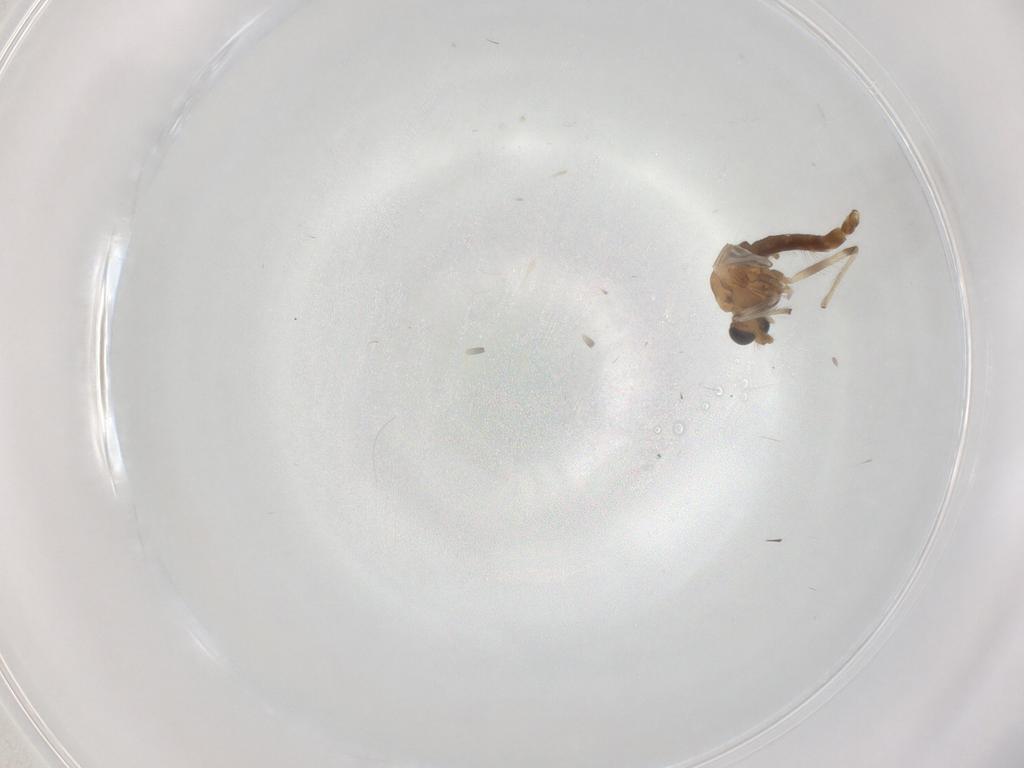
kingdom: Animalia
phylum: Arthropoda
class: Insecta
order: Diptera
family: Chironomidae
